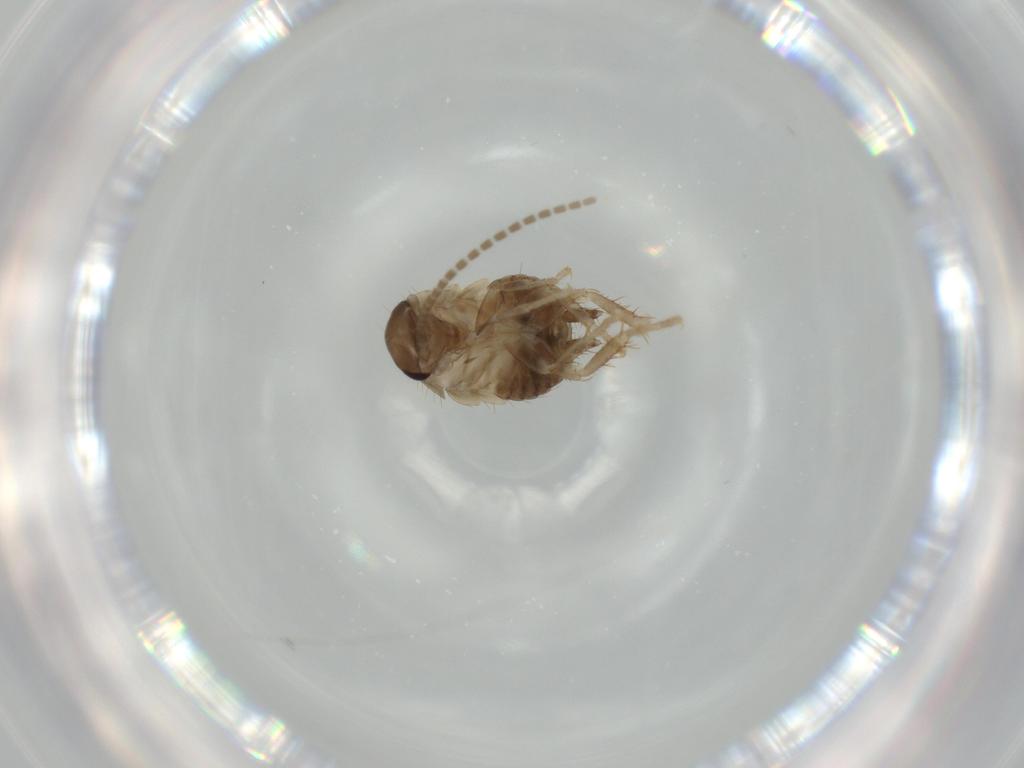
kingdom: Animalia
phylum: Arthropoda
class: Insecta
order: Blattodea
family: Ectobiidae
